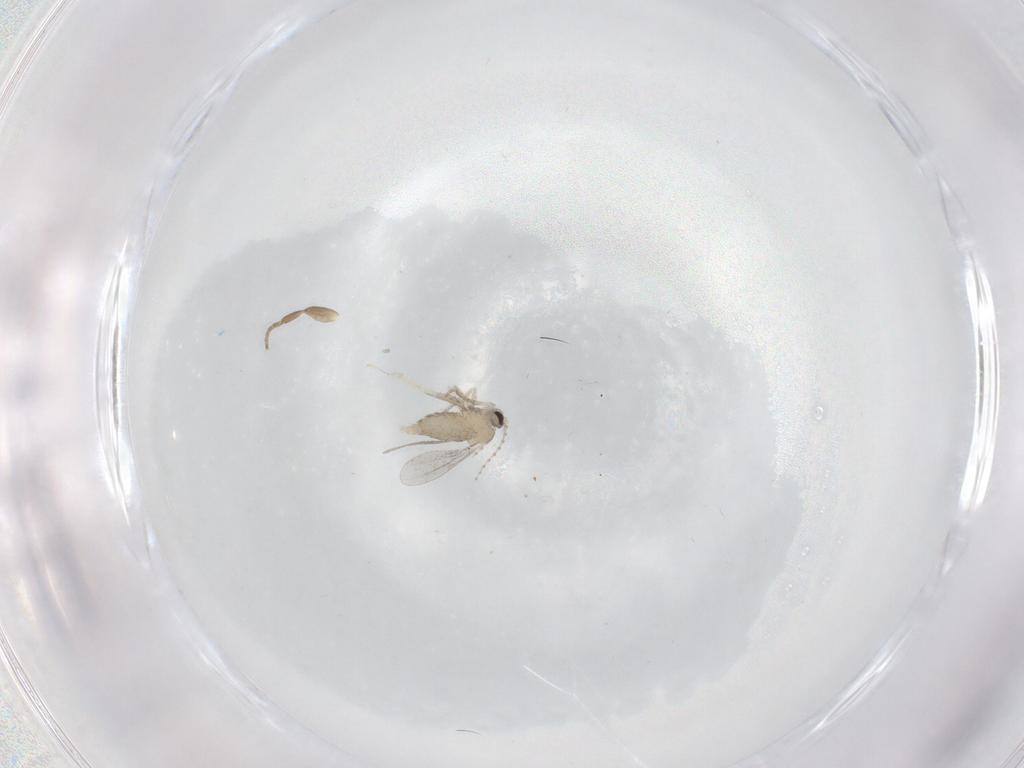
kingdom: Animalia
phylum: Arthropoda
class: Insecta
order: Diptera
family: Cecidomyiidae
